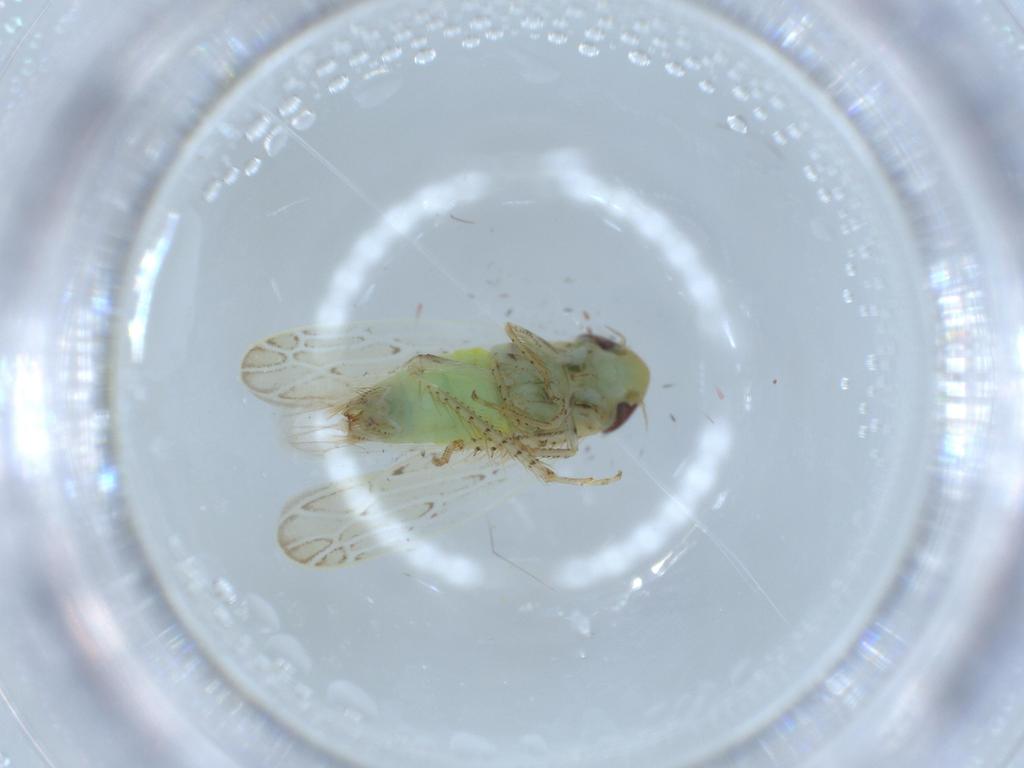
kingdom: Animalia
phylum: Arthropoda
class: Insecta
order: Hemiptera
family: Cicadellidae
